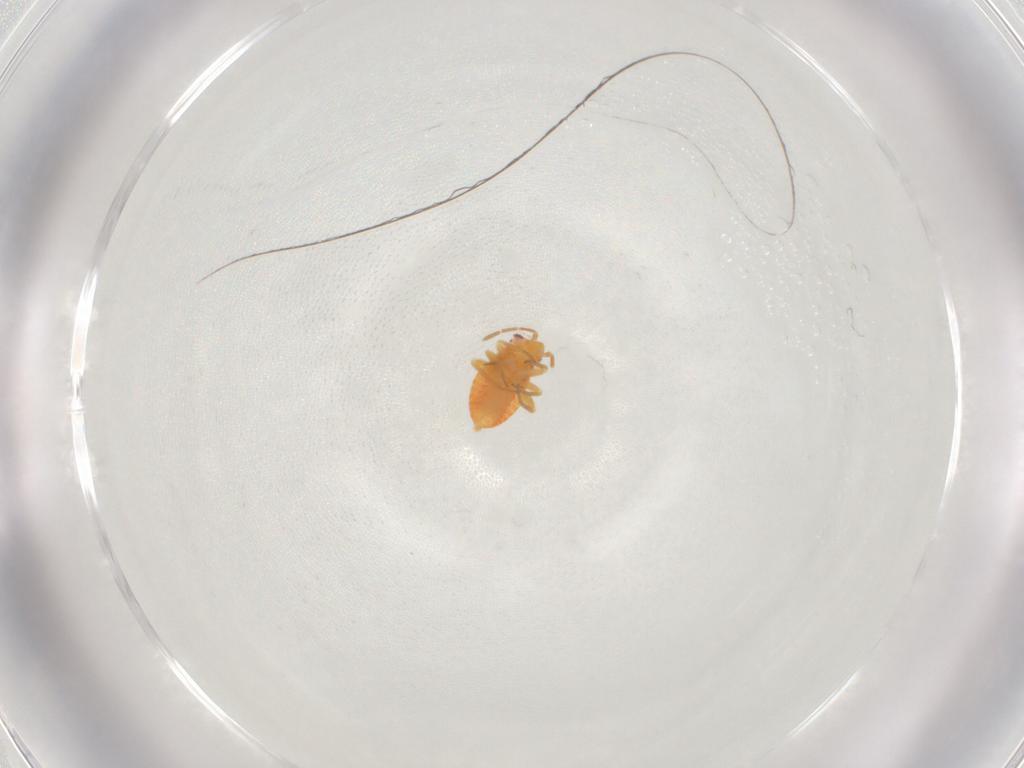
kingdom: Animalia
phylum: Arthropoda
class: Insecta
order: Hemiptera
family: Miridae
